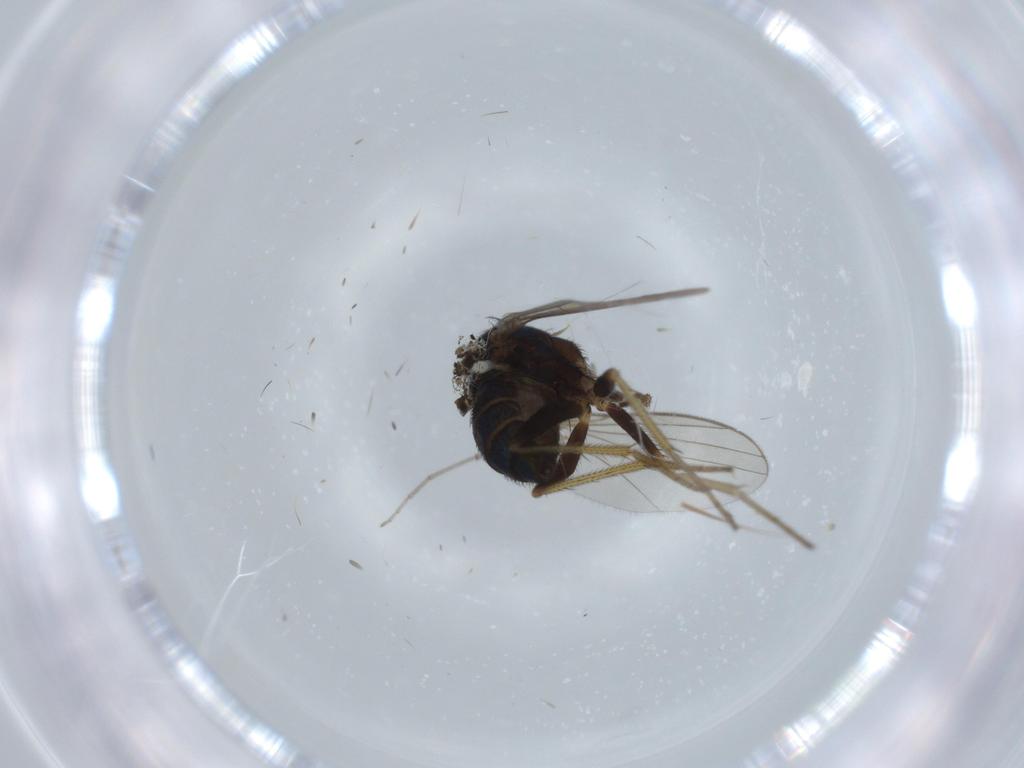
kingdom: Animalia
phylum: Arthropoda
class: Insecta
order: Diptera
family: Chironomidae
